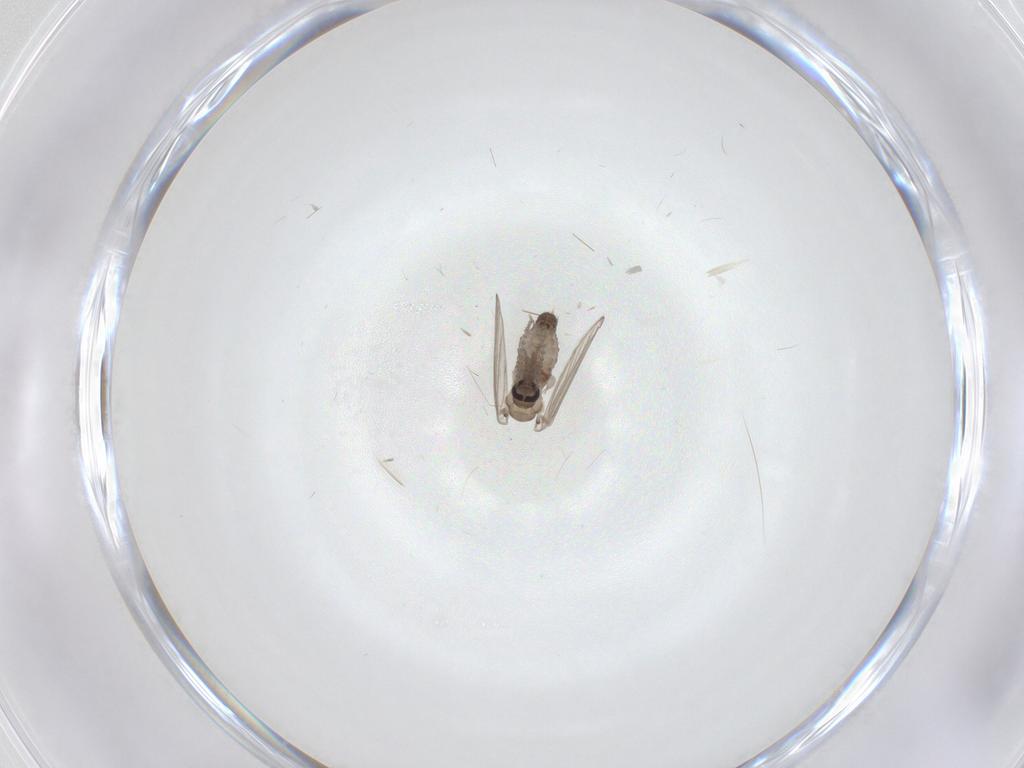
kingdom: Animalia
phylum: Arthropoda
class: Insecta
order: Diptera
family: Psychodidae
